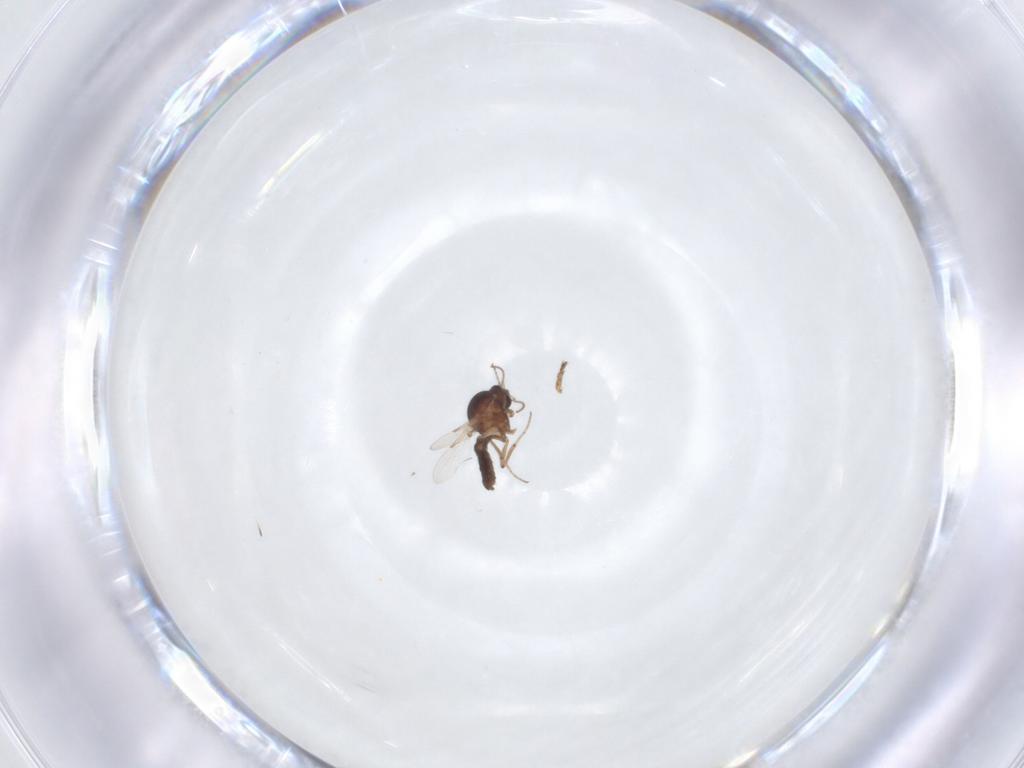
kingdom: Animalia
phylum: Arthropoda
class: Insecta
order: Diptera
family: Ceratopogonidae
